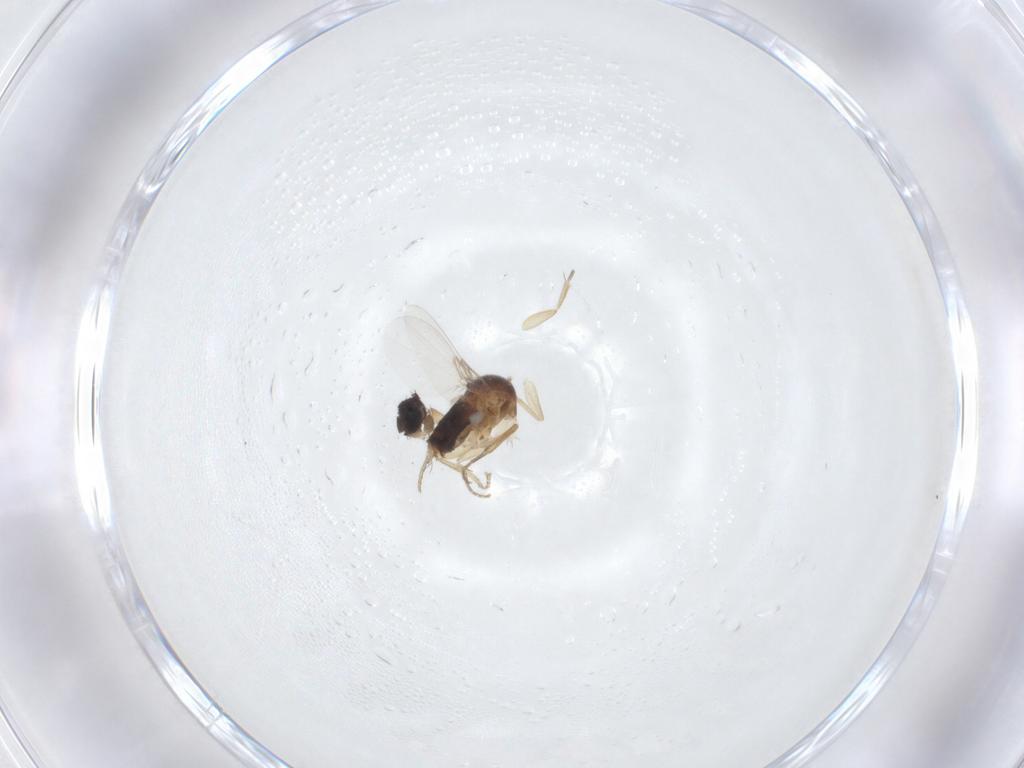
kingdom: Animalia
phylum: Arthropoda
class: Insecta
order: Diptera
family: Phoridae
